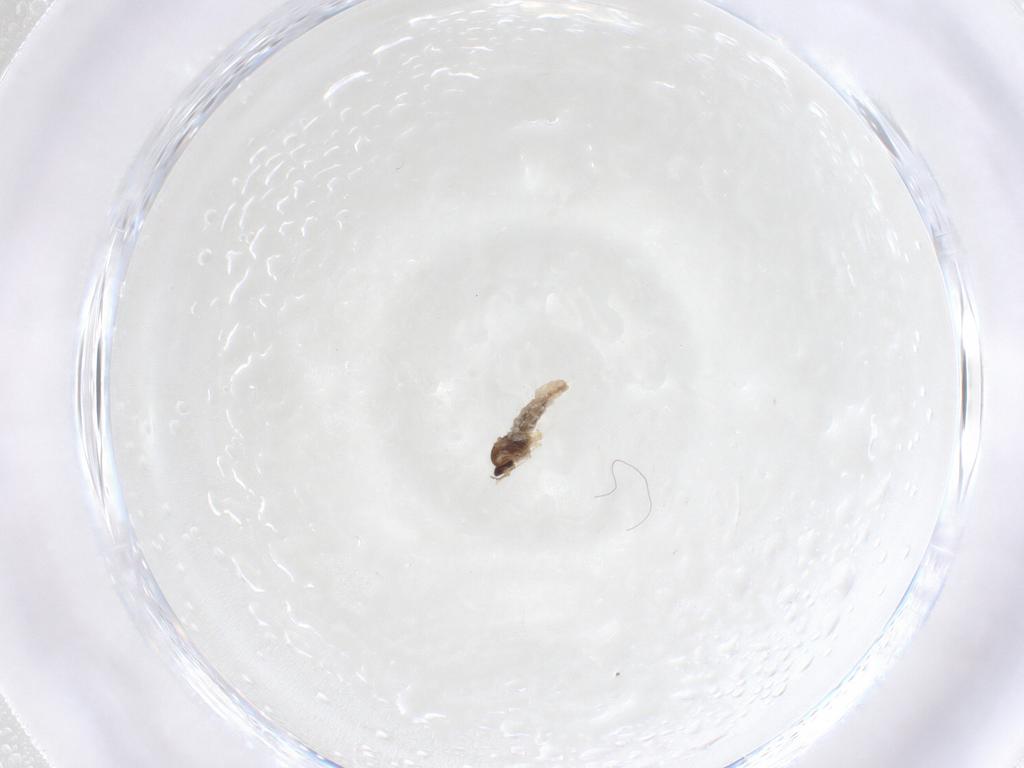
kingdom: Animalia
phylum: Arthropoda
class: Insecta
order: Diptera
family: Cecidomyiidae
